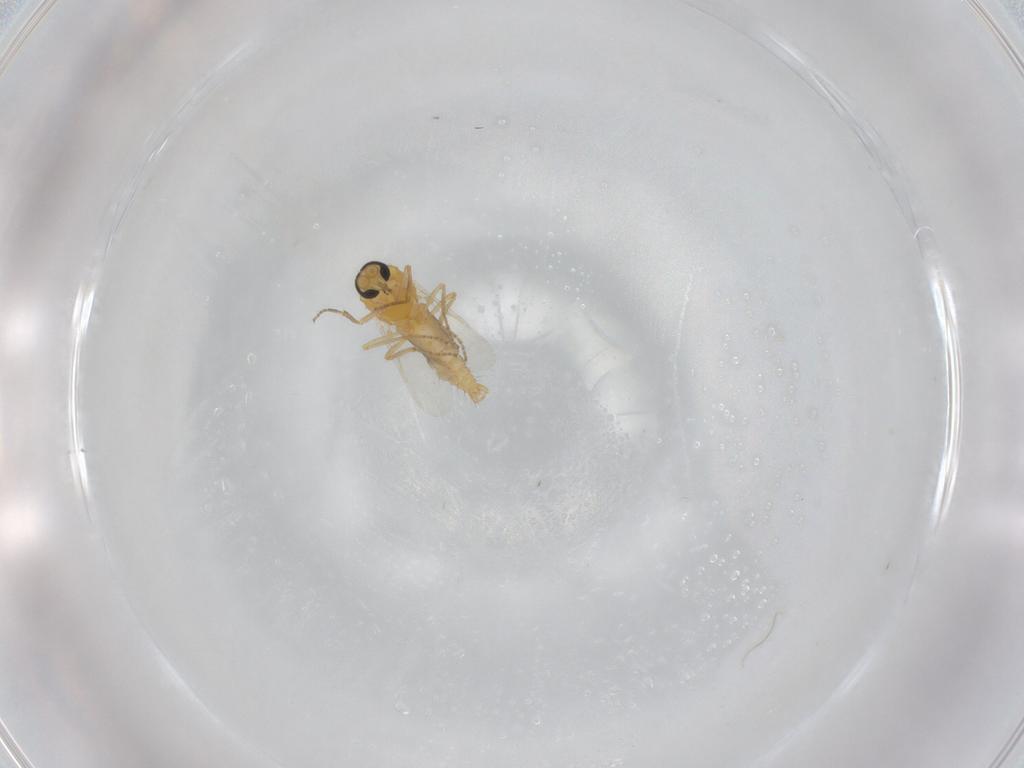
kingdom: Animalia
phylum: Arthropoda
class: Insecta
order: Diptera
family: Ceratopogonidae
